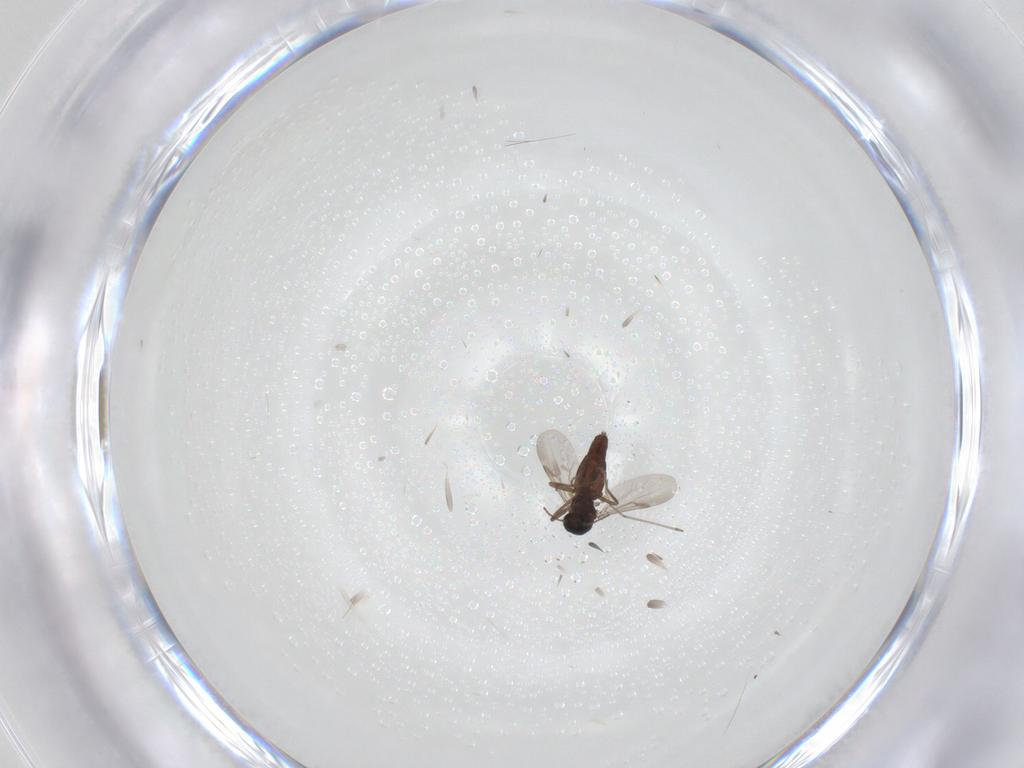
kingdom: Animalia
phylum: Arthropoda
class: Insecta
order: Diptera
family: Ceratopogonidae
